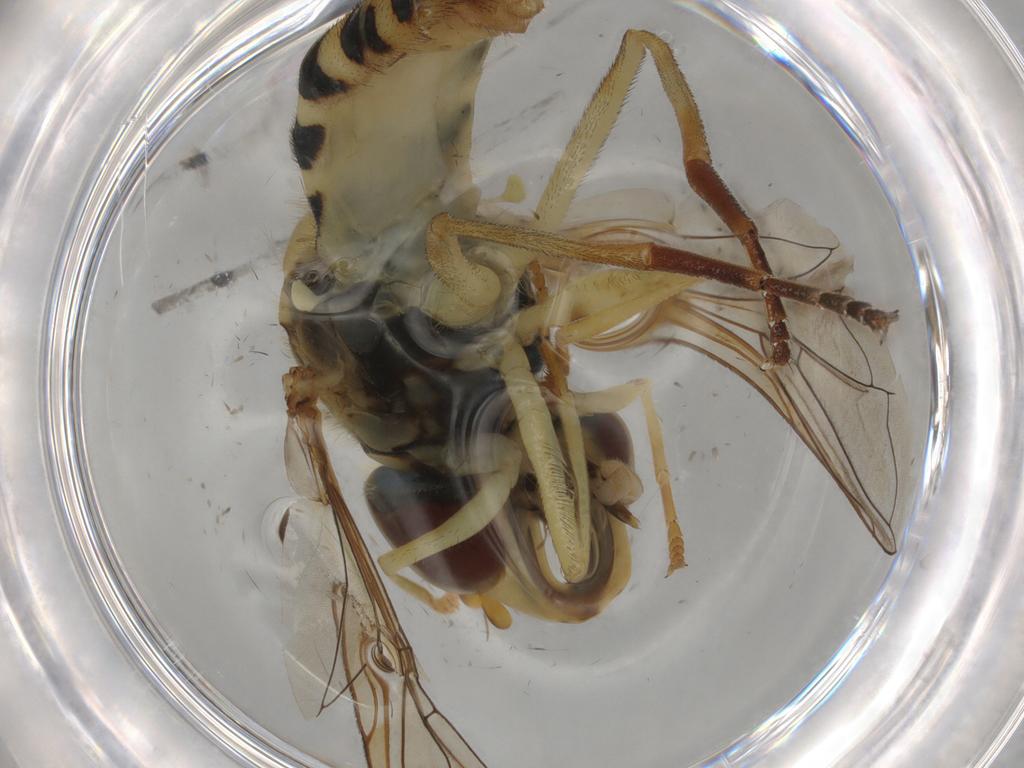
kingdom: Animalia
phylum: Arthropoda
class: Insecta
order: Diptera
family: Syrphidae
